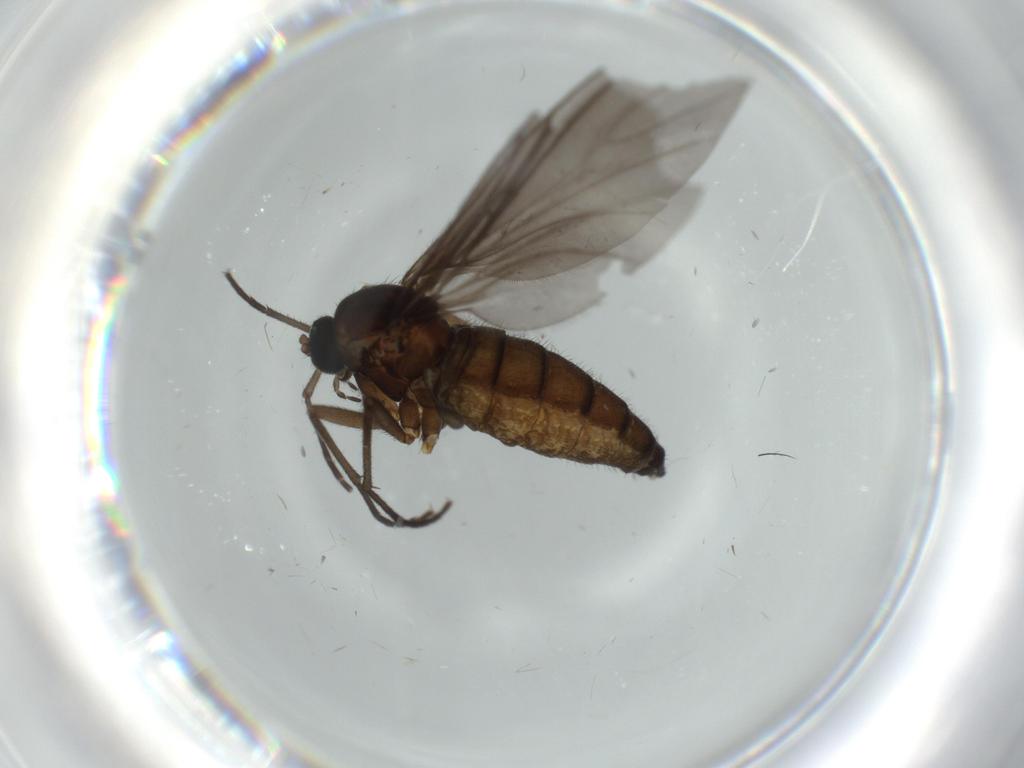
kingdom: Animalia
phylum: Arthropoda
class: Insecta
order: Diptera
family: Sciaridae
